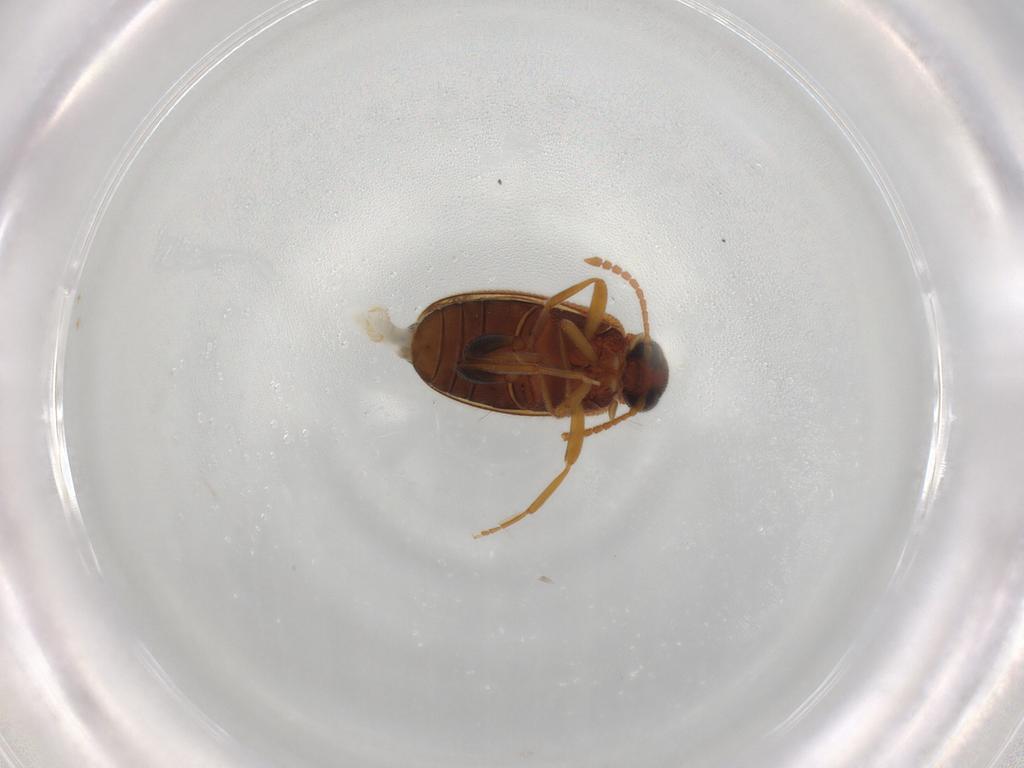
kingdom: Animalia
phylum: Arthropoda
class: Insecta
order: Coleoptera
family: Aderidae
